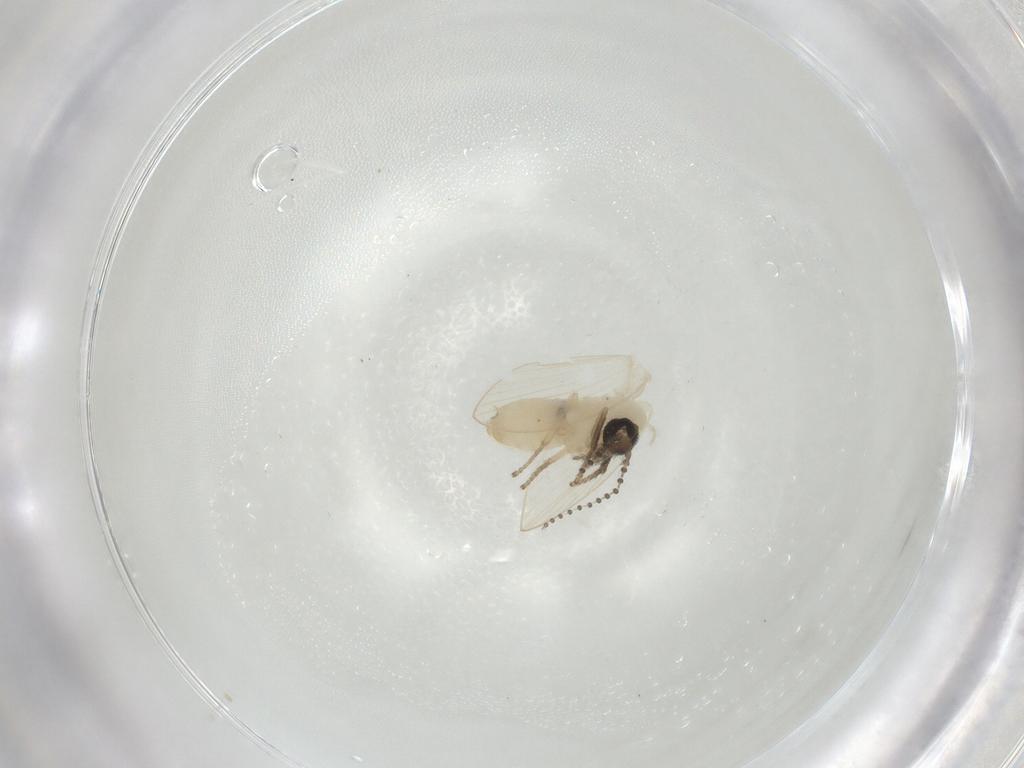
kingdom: Animalia
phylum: Arthropoda
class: Insecta
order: Diptera
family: Psychodidae
